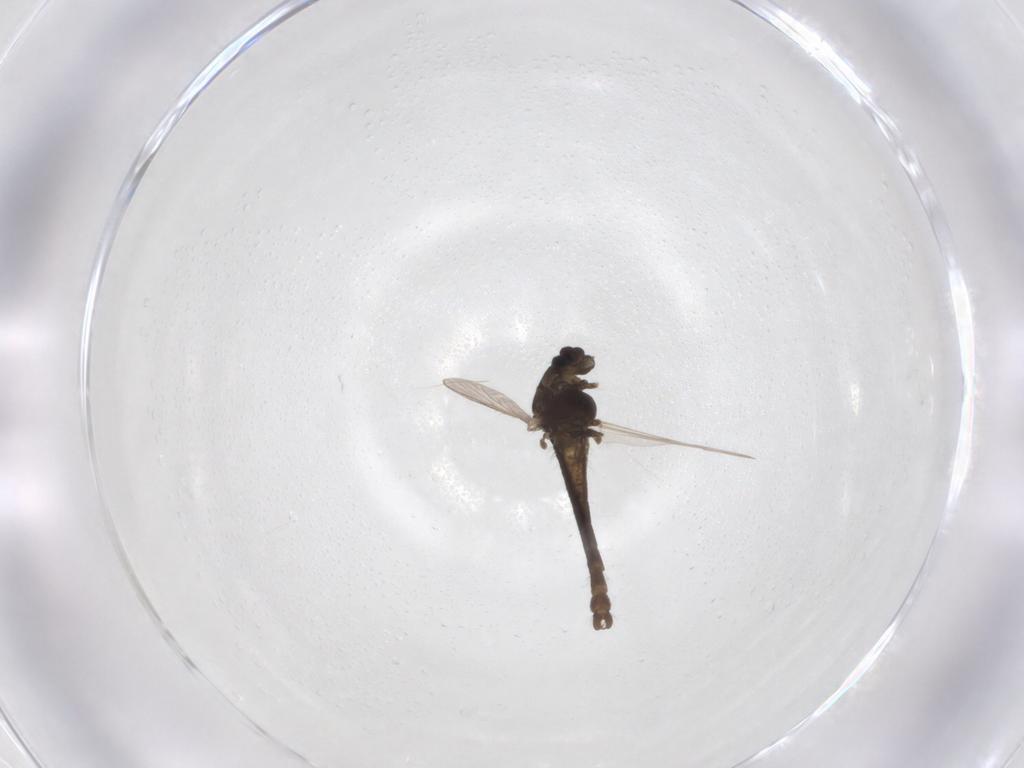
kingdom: Animalia
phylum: Arthropoda
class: Insecta
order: Diptera
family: Chironomidae
